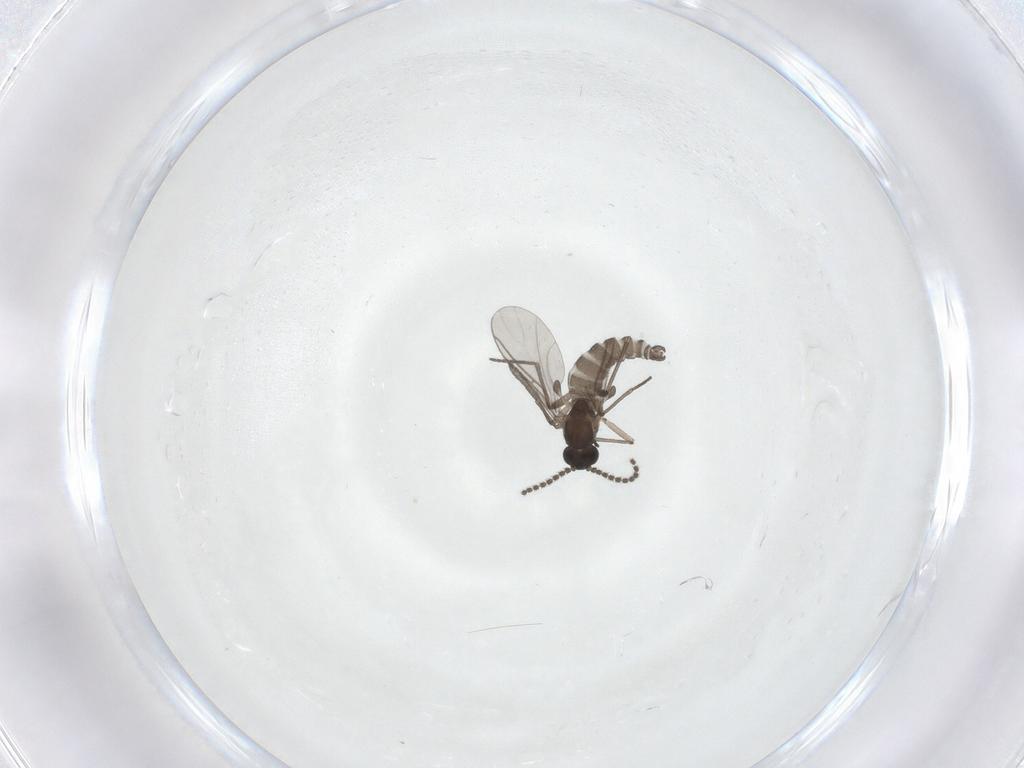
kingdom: Animalia
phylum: Arthropoda
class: Insecta
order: Diptera
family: Ceratopogonidae
